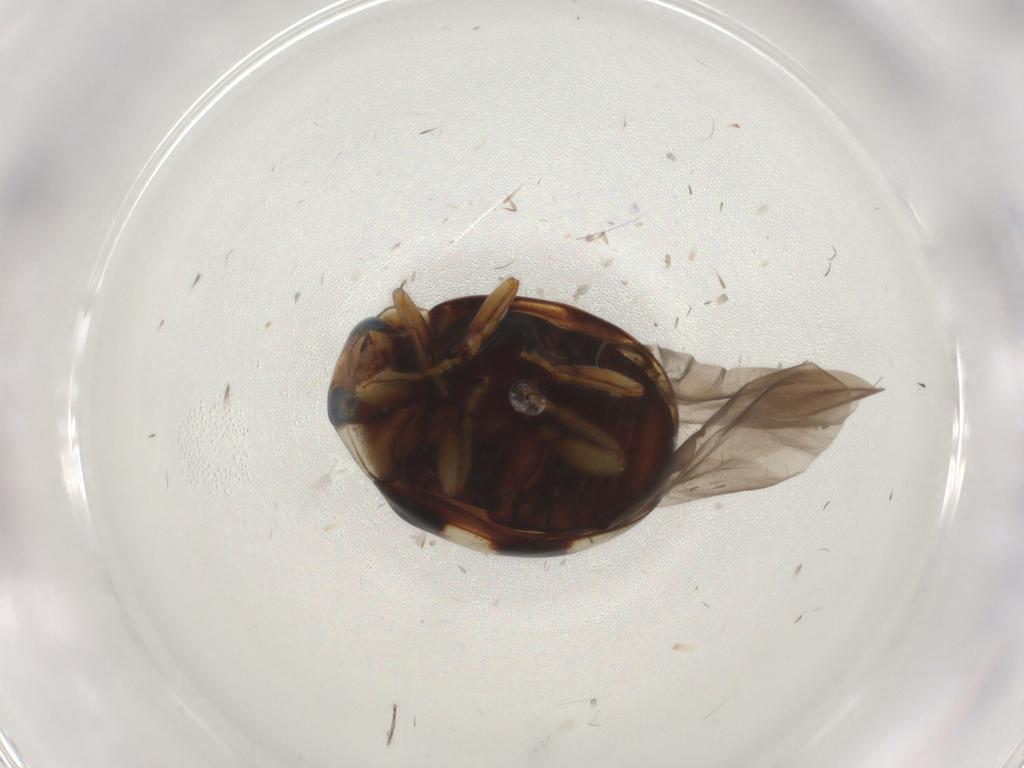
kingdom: Animalia
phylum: Arthropoda
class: Insecta
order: Coleoptera
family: Coccinellidae
